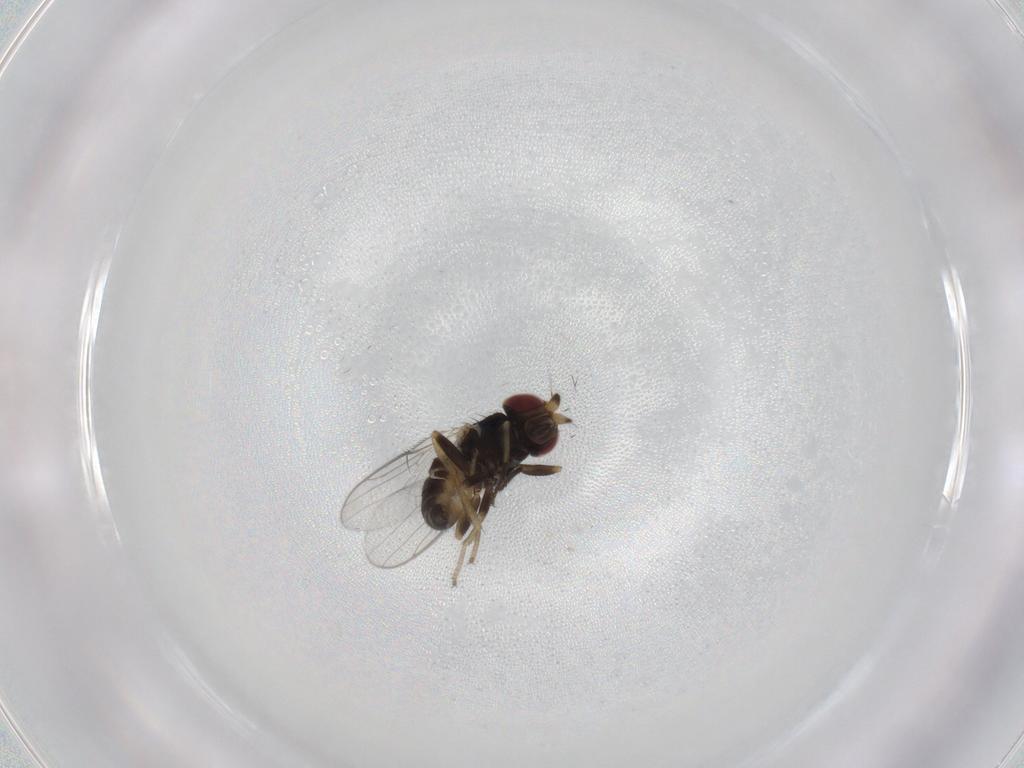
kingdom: Animalia
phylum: Arthropoda
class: Insecta
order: Diptera
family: Chloropidae
